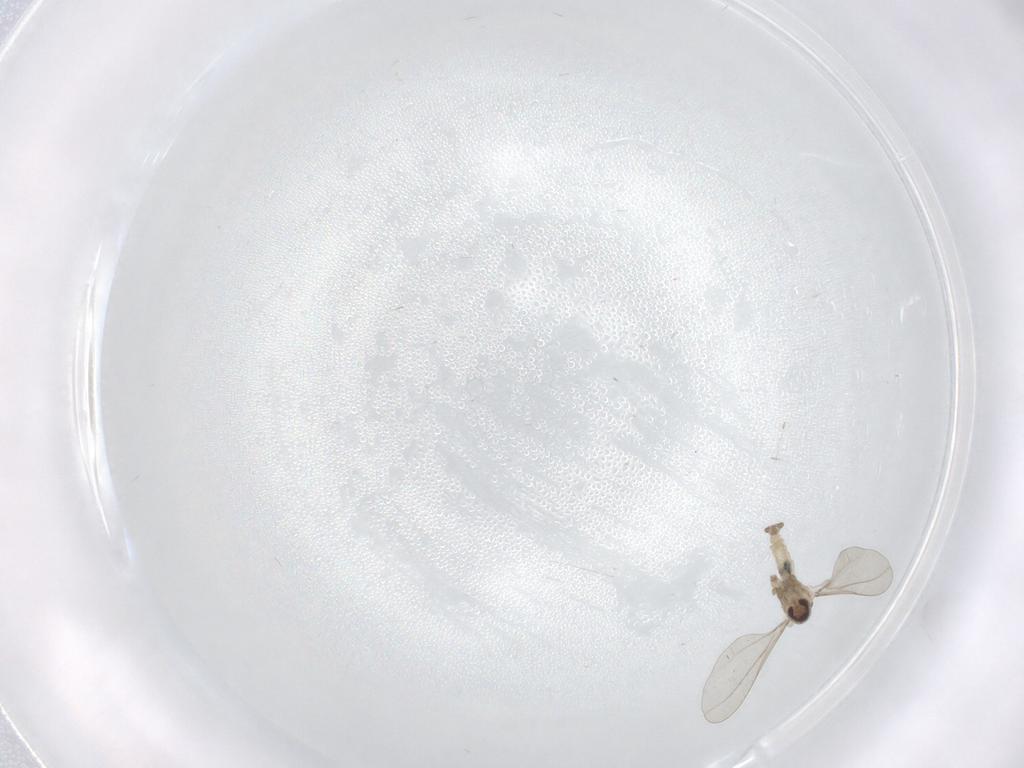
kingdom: Animalia
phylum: Arthropoda
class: Insecta
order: Diptera
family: Cecidomyiidae
